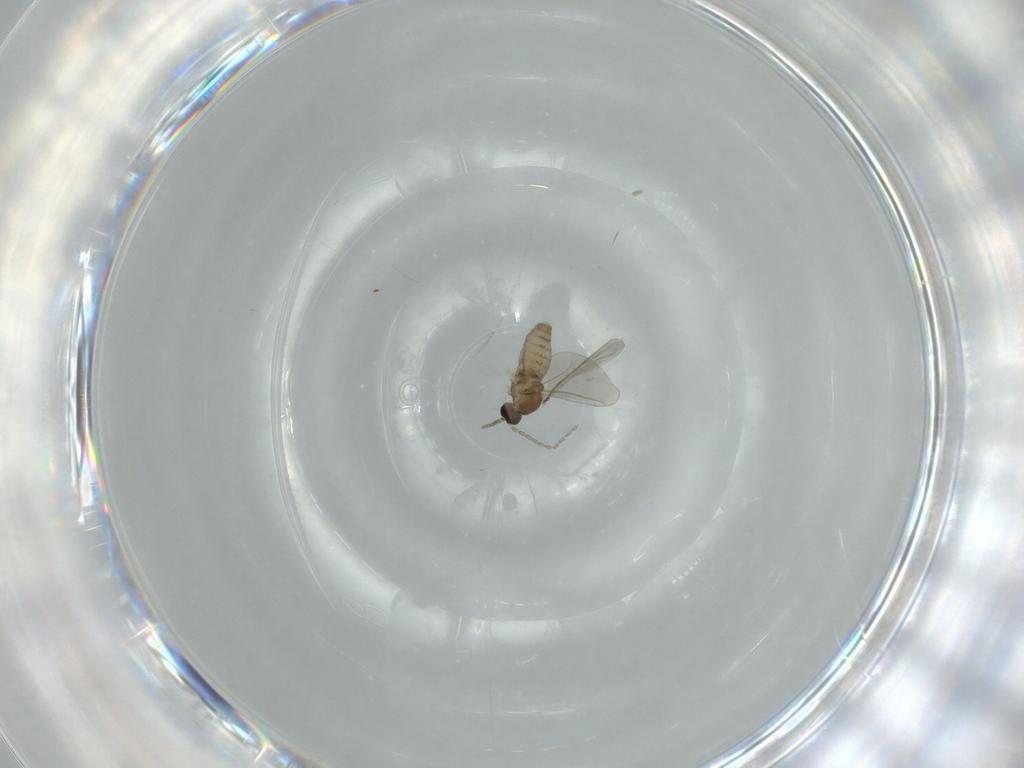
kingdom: Animalia
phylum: Arthropoda
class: Insecta
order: Diptera
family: Cecidomyiidae
